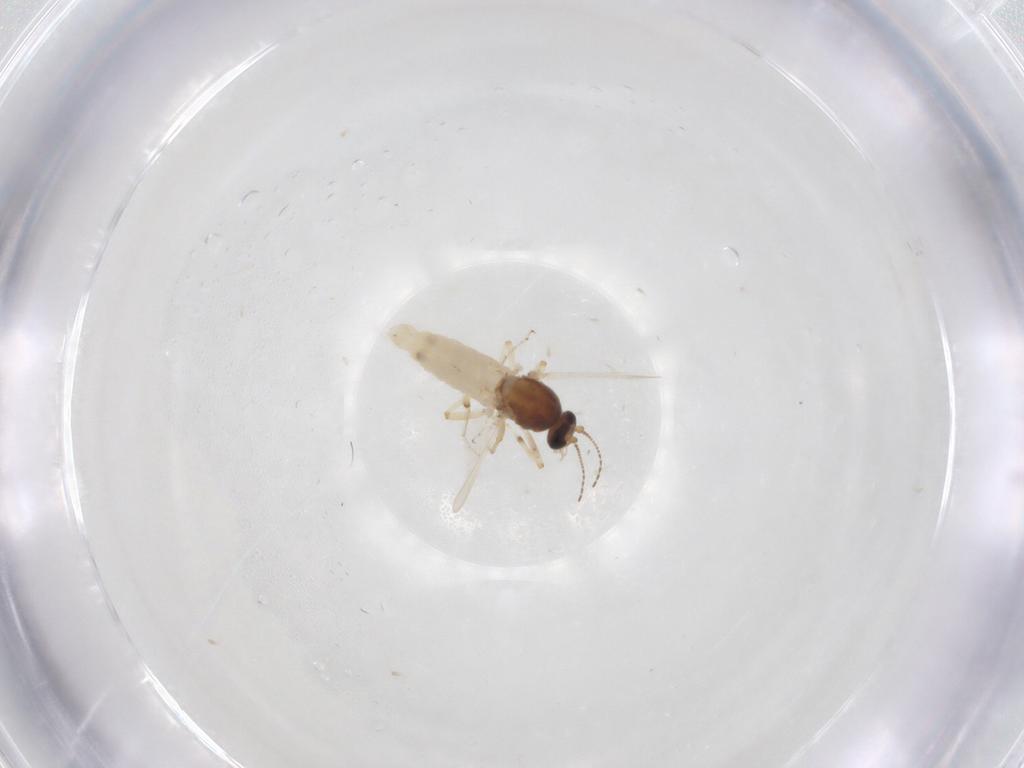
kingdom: Animalia
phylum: Arthropoda
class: Insecta
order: Diptera
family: Ceratopogonidae
